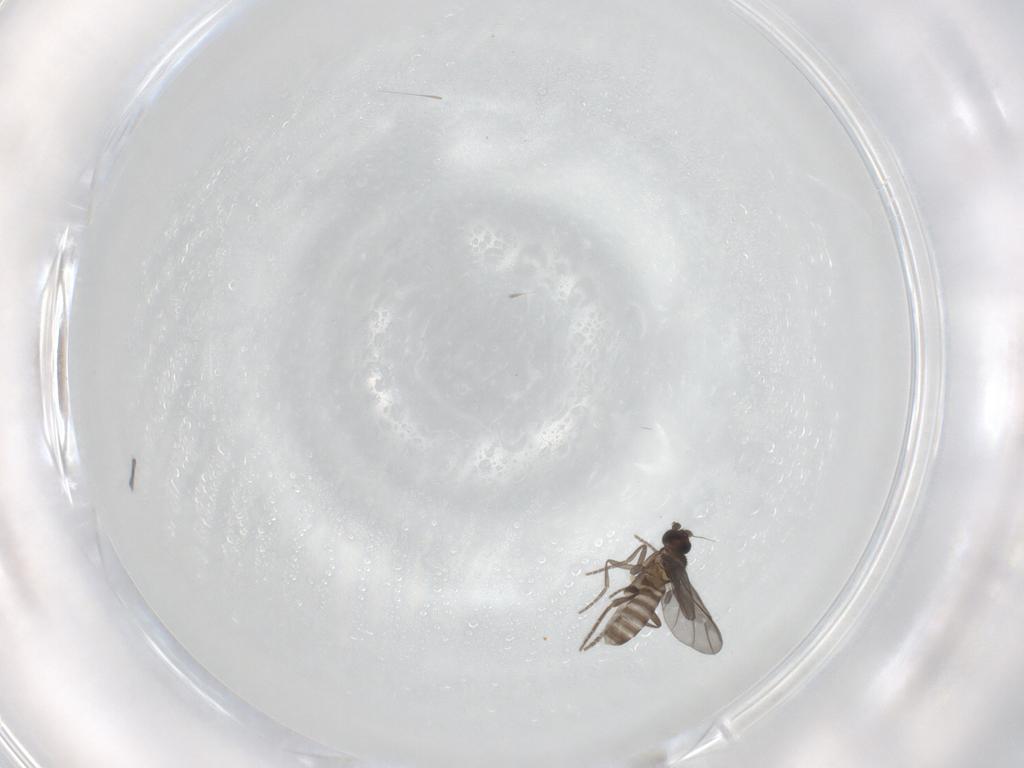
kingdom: Animalia
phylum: Arthropoda
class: Insecta
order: Diptera
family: Phoridae
